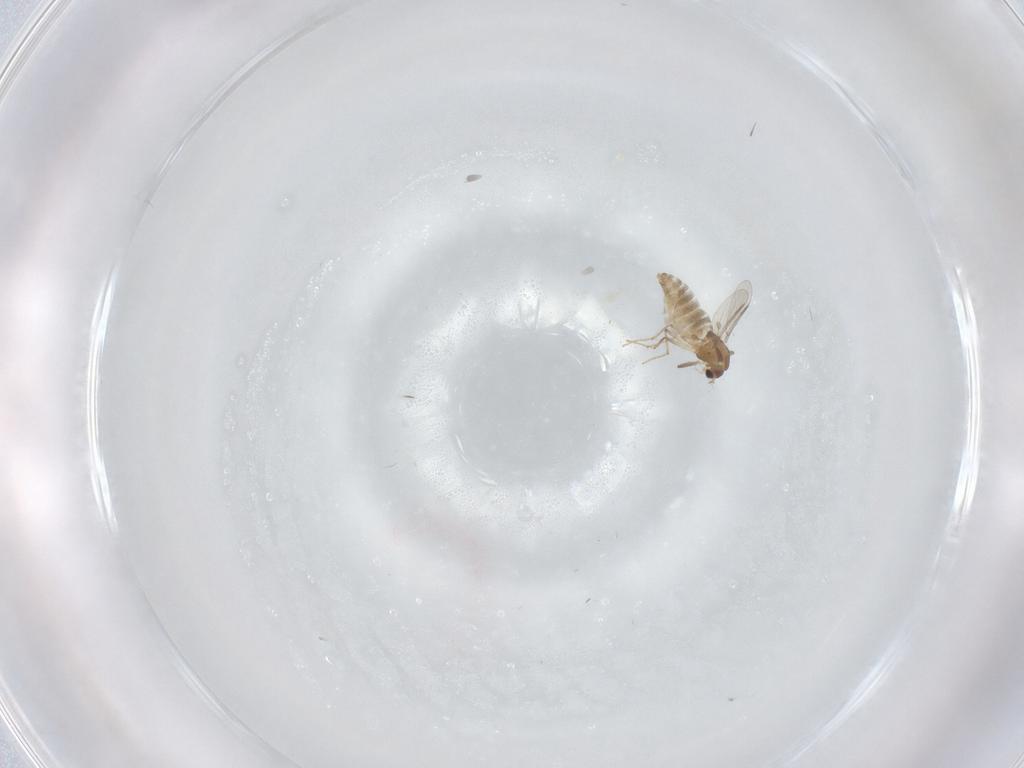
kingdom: Animalia
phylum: Arthropoda
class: Insecta
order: Diptera
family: Chironomidae
